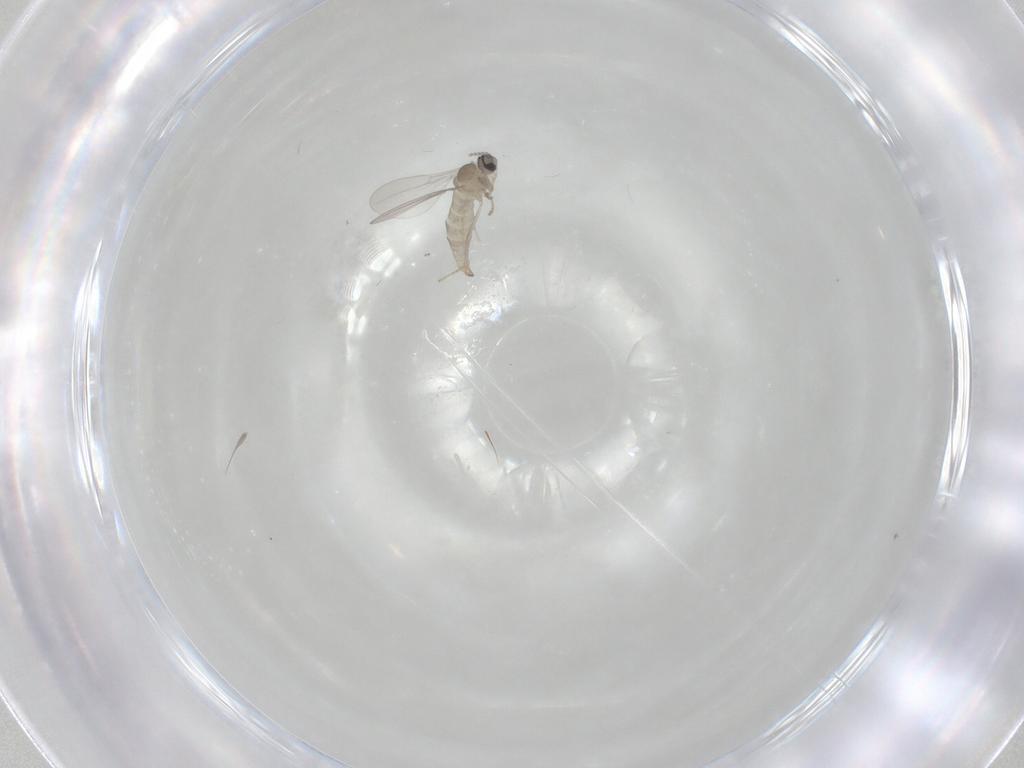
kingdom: Animalia
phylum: Arthropoda
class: Insecta
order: Diptera
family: Cecidomyiidae
